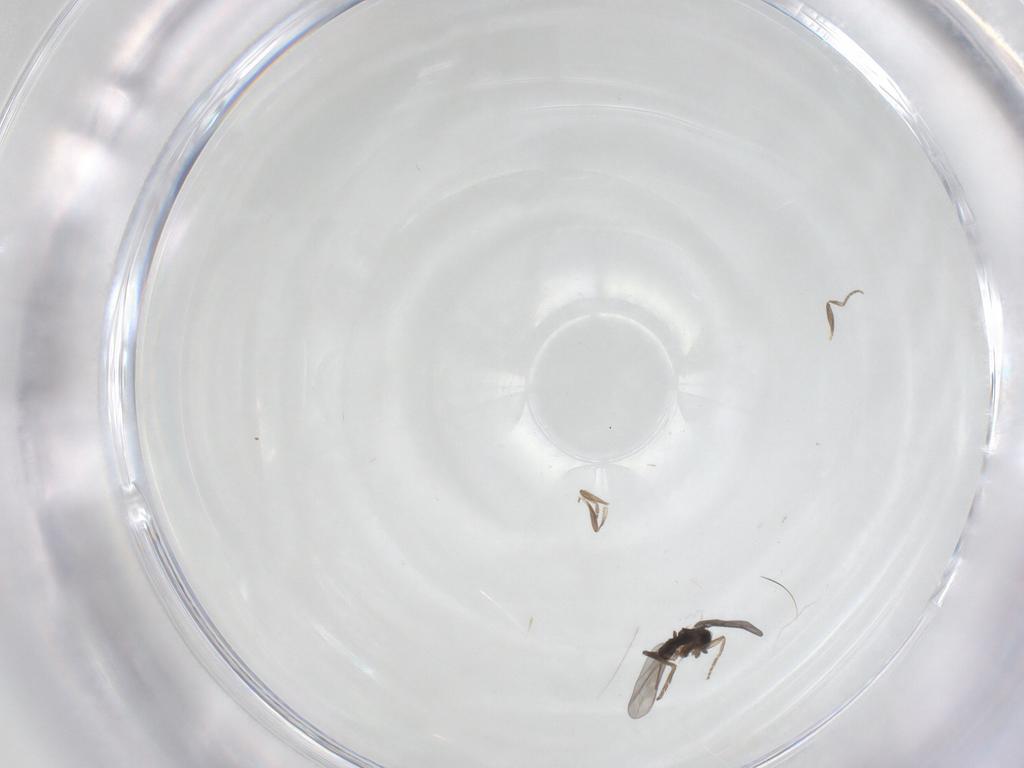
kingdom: Animalia
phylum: Arthropoda
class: Insecta
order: Diptera
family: Culicidae
